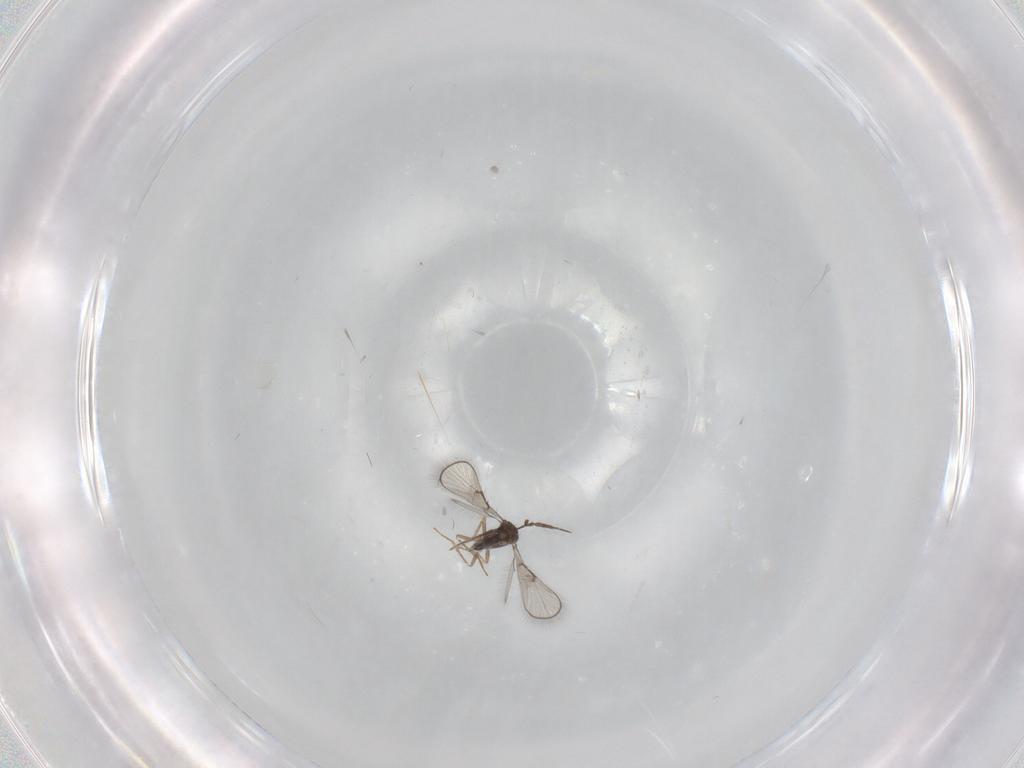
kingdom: Animalia
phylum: Arthropoda
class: Insecta
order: Hymenoptera
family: Mymaridae
